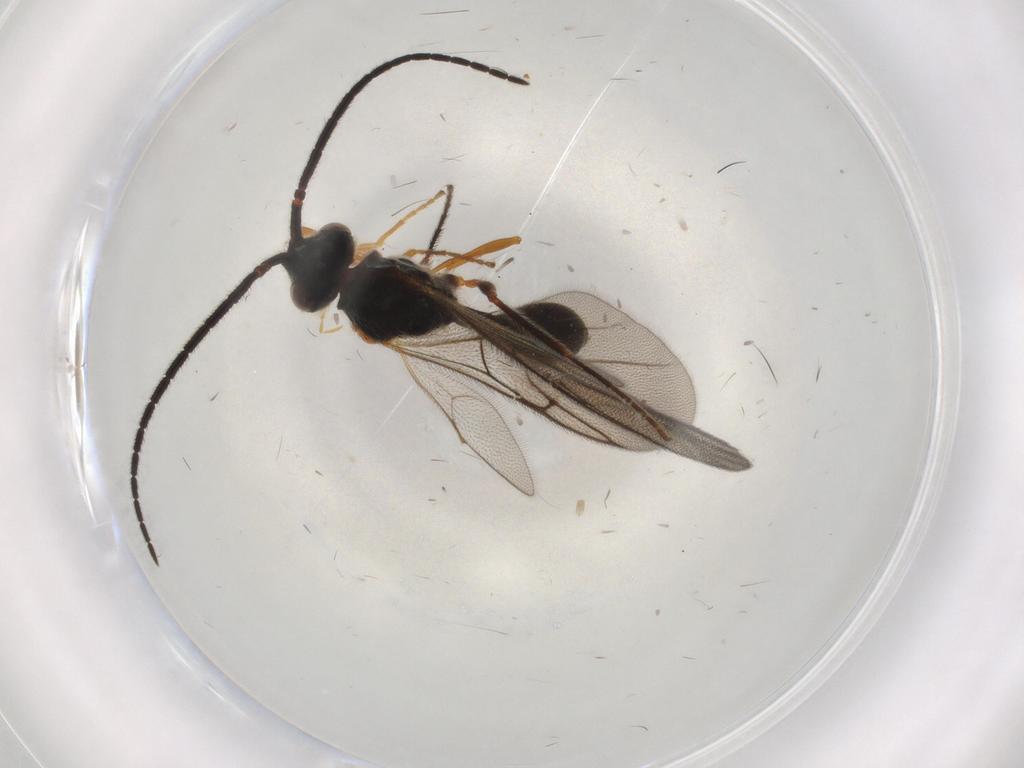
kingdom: Animalia
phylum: Arthropoda
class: Insecta
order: Hymenoptera
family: Diapriidae
